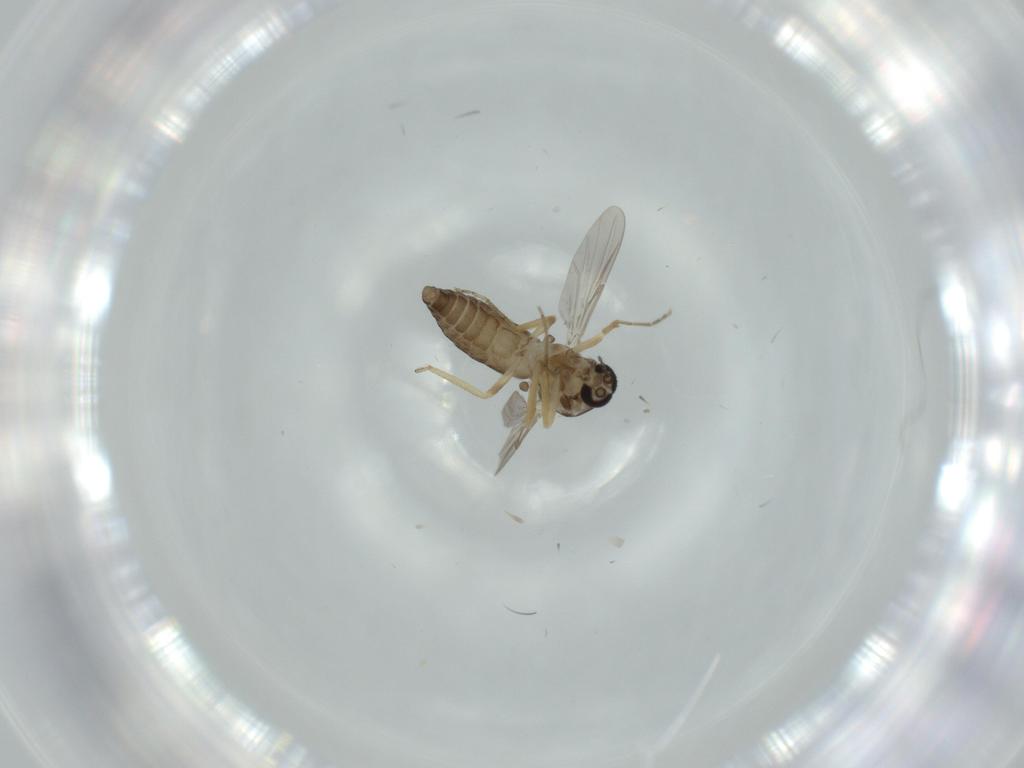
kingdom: Animalia
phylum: Arthropoda
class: Insecta
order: Diptera
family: Ceratopogonidae
